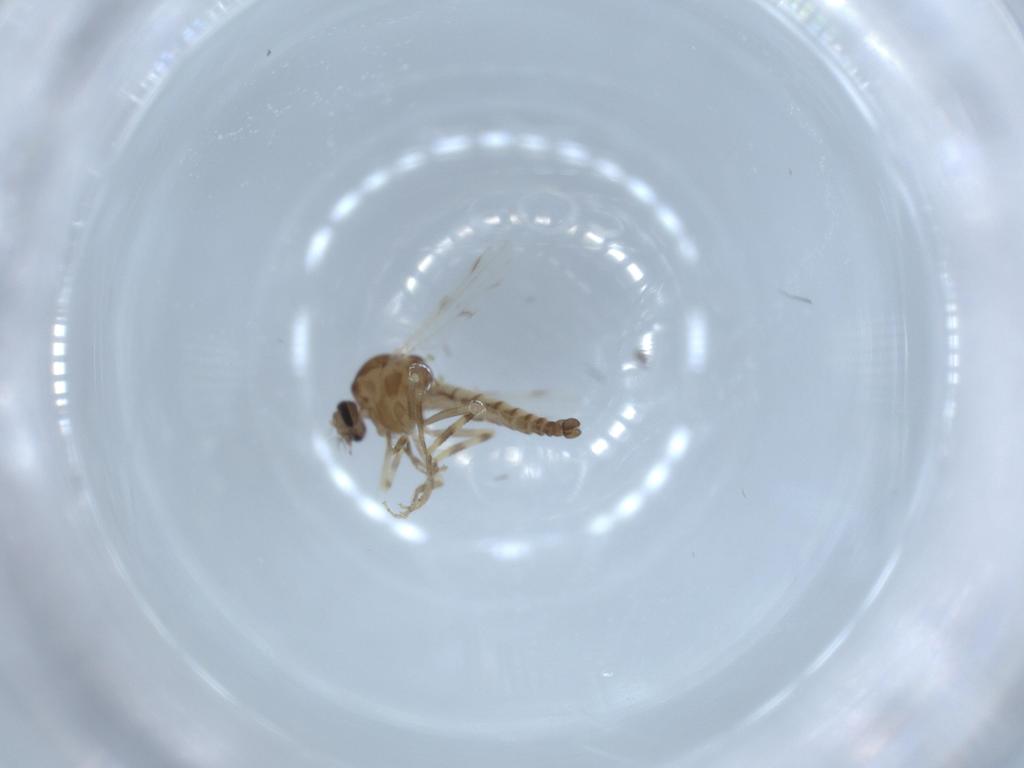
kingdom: Animalia
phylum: Arthropoda
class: Insecta
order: Diptera
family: Ceratopogonidae
